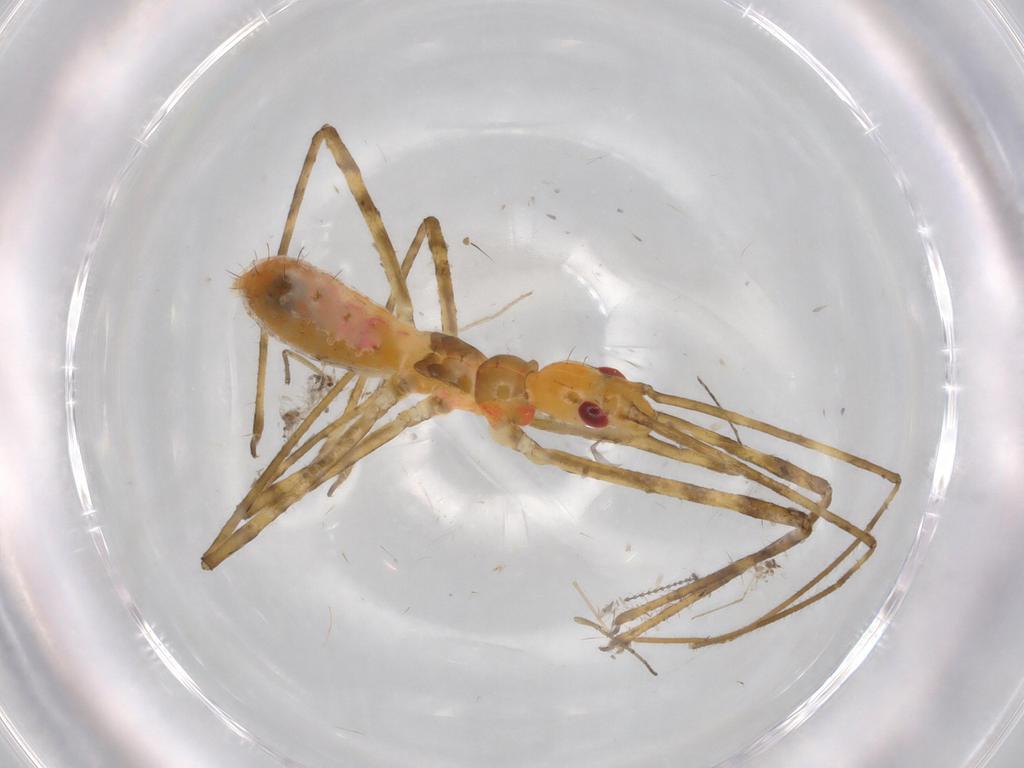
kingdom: Animalia
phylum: Arthropoda
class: Insecta
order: Hemiptera
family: Reduviidae
